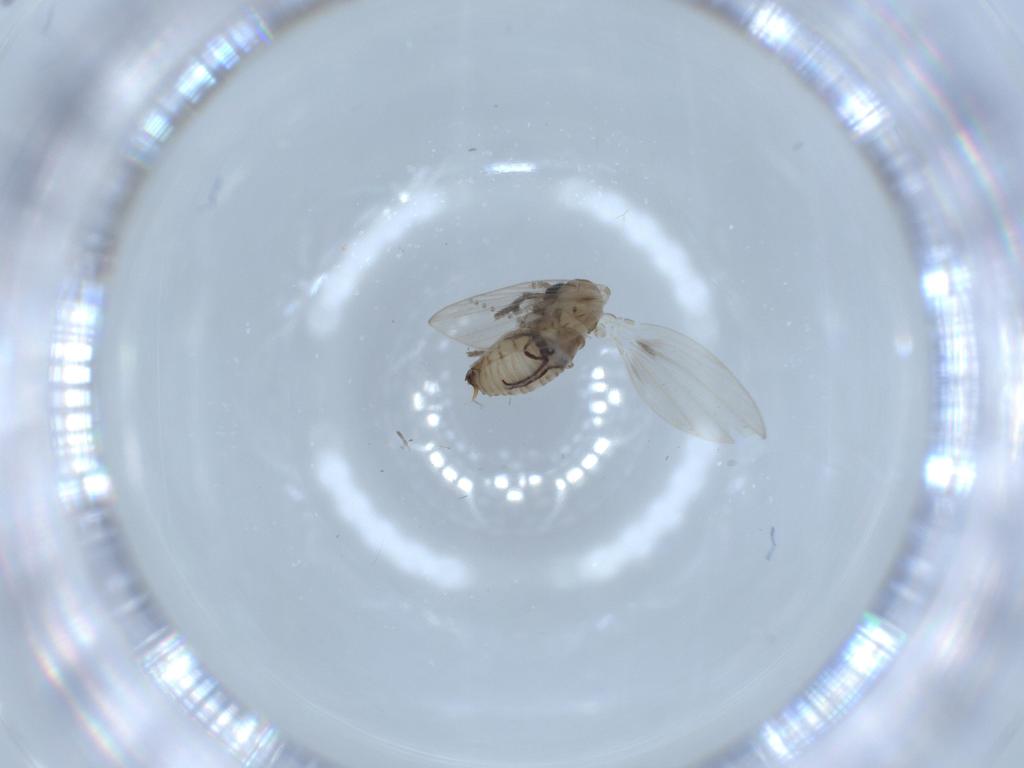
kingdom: Animalia
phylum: Arthropoda
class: Insecta
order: Diptera
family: Psychodidae
